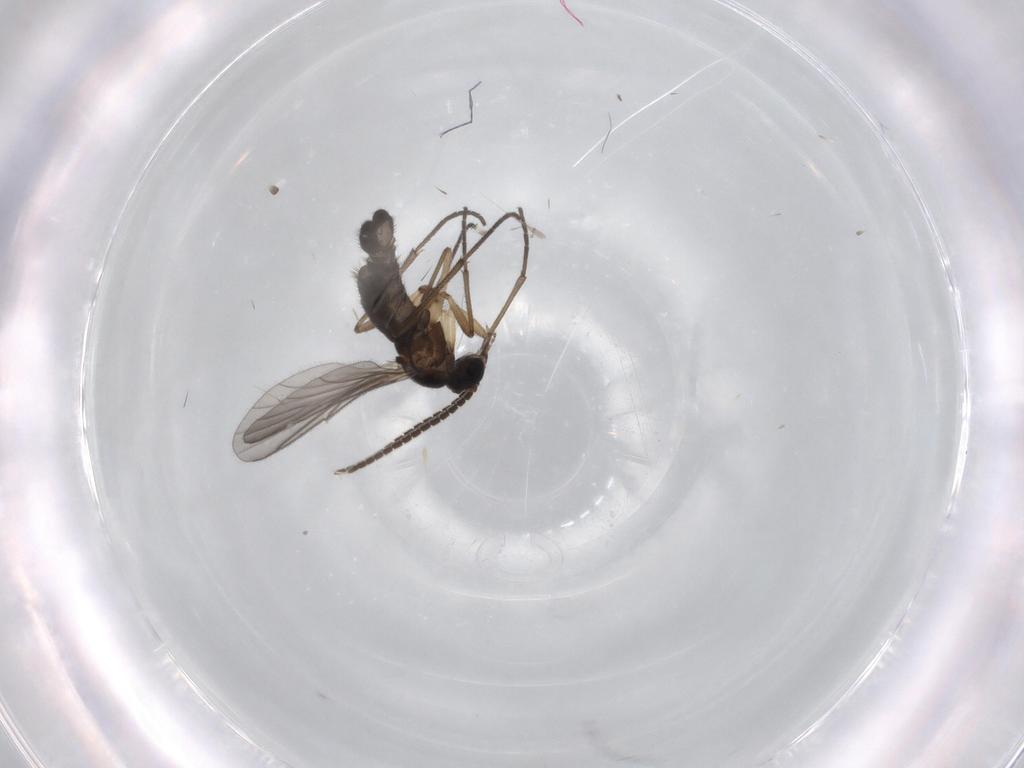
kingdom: Animalia
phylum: Arthropoda
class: Insecta
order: Diptera
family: Sciaridae
